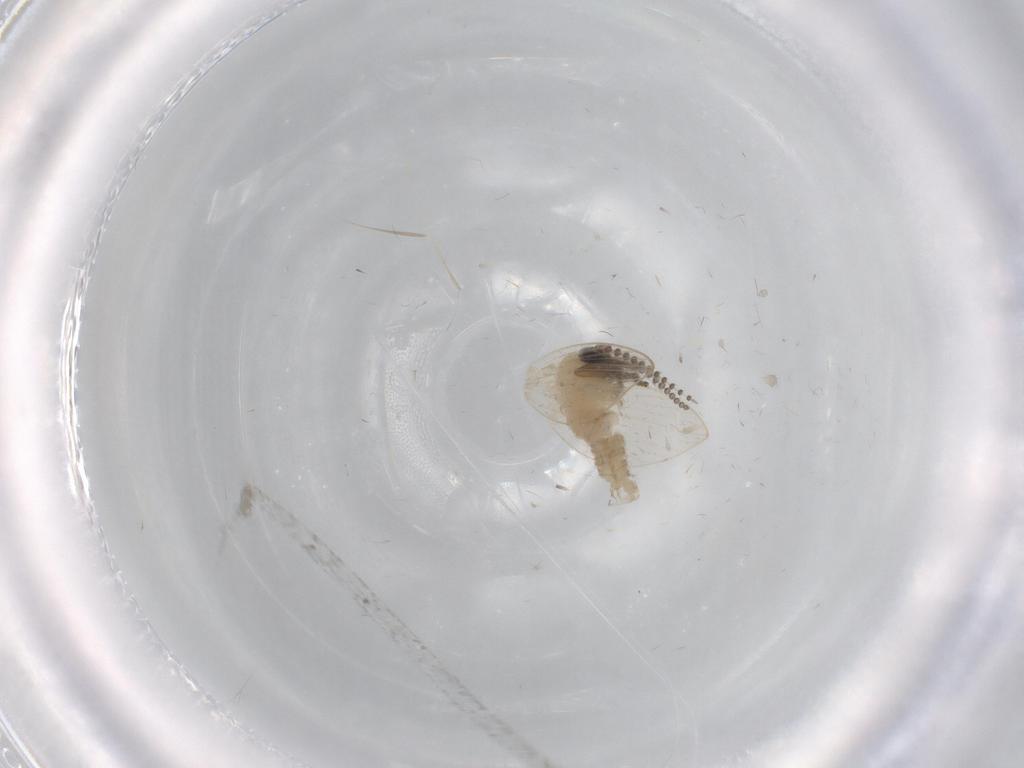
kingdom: Animalia
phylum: Arthropoda
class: Insecta
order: Diptera
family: Psychodidae
